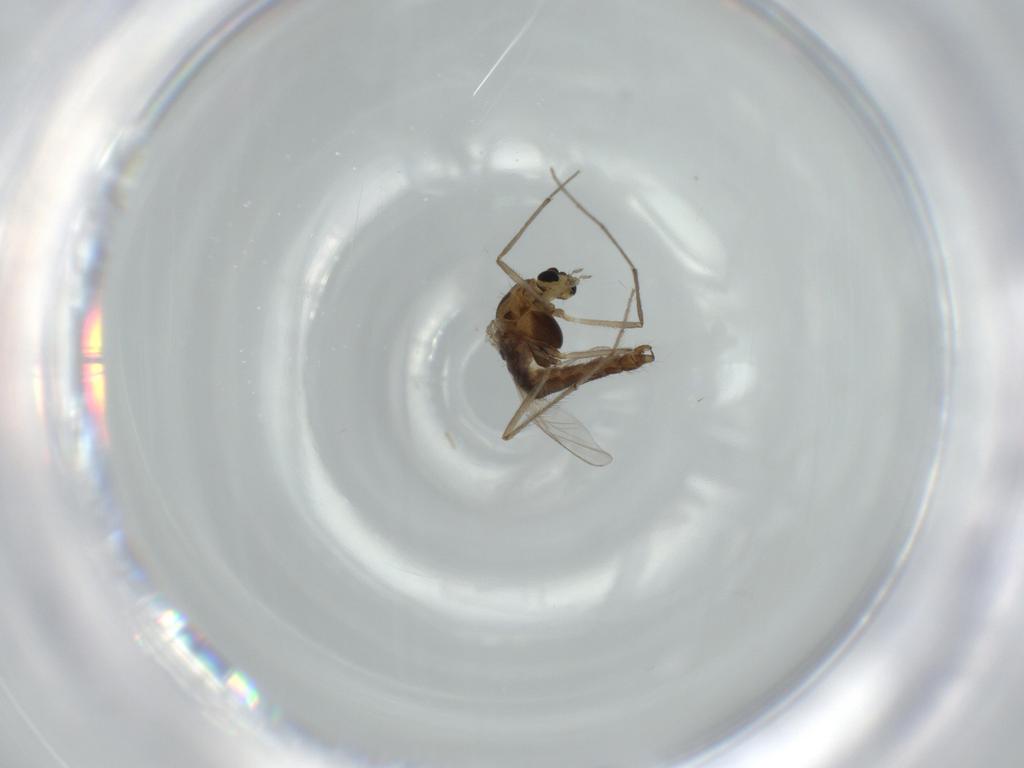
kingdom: Animalia
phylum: Arthropoda
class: Insecta
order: Diptera
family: Chironomidae
